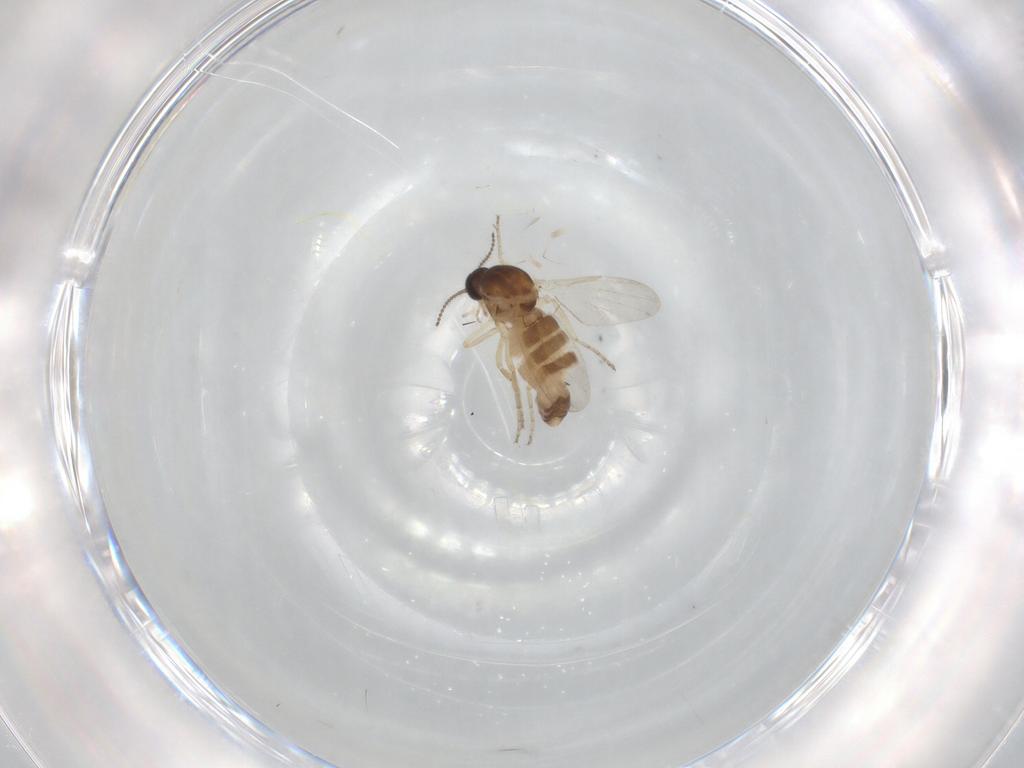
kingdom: Animalia
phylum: Arthropoda
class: Insecta
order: Diptera
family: Ceratopogonidae
